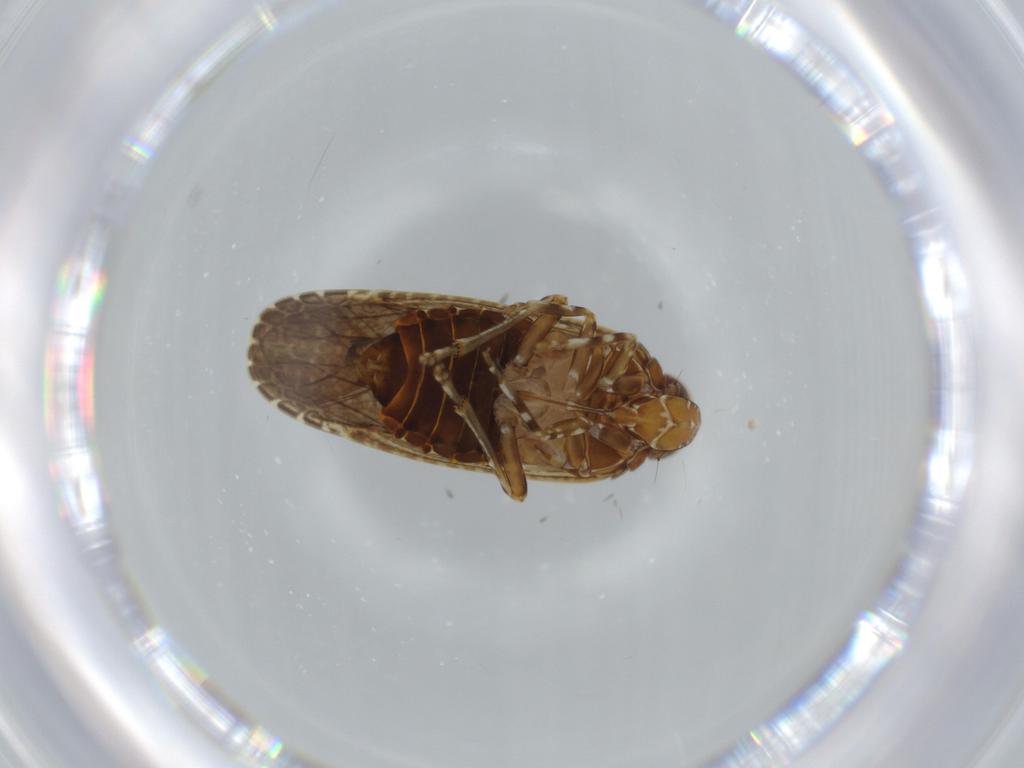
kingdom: Animalia
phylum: Arthropoda
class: Insecta
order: Hemiptera
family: Achilidae
